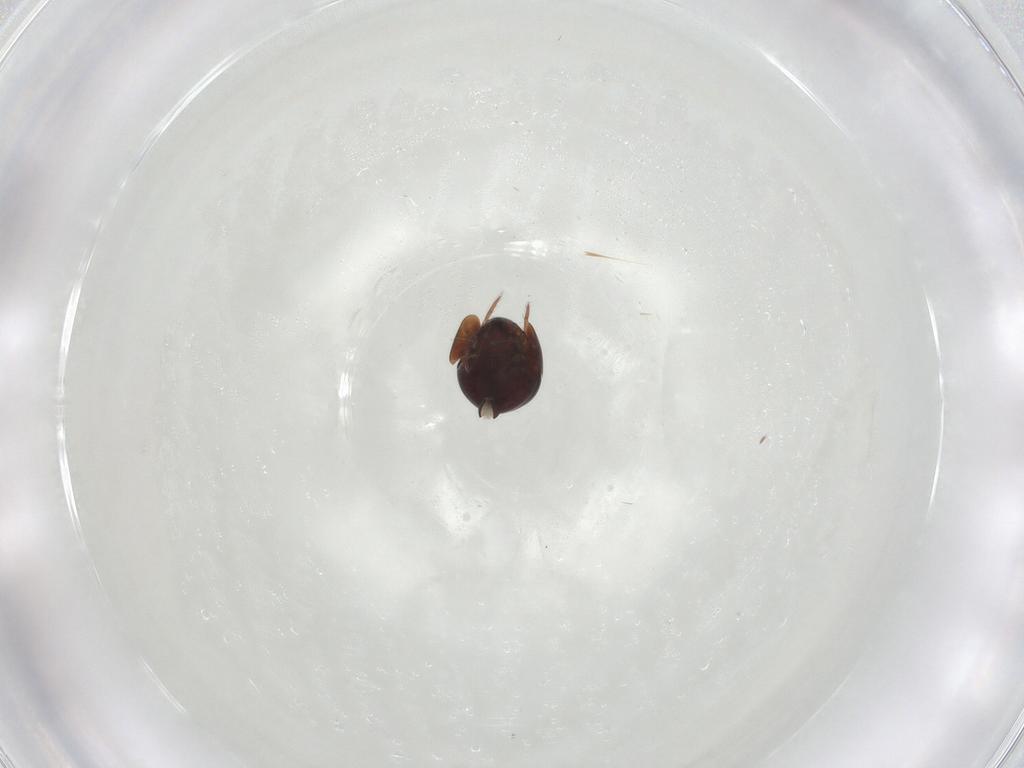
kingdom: Animalia
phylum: Arthropoda
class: Arachnida
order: Sarcoptiformes
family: Galumnidae
